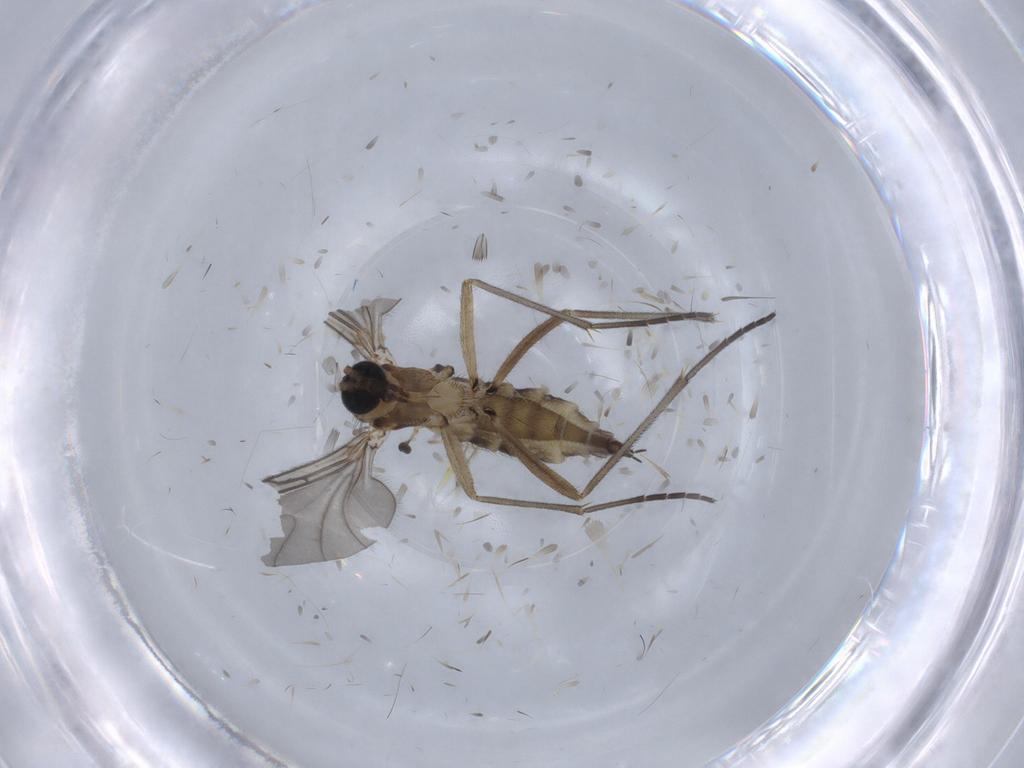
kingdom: Animalia
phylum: Arthropoda
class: Insecta
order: Diptera
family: Sciaridae
